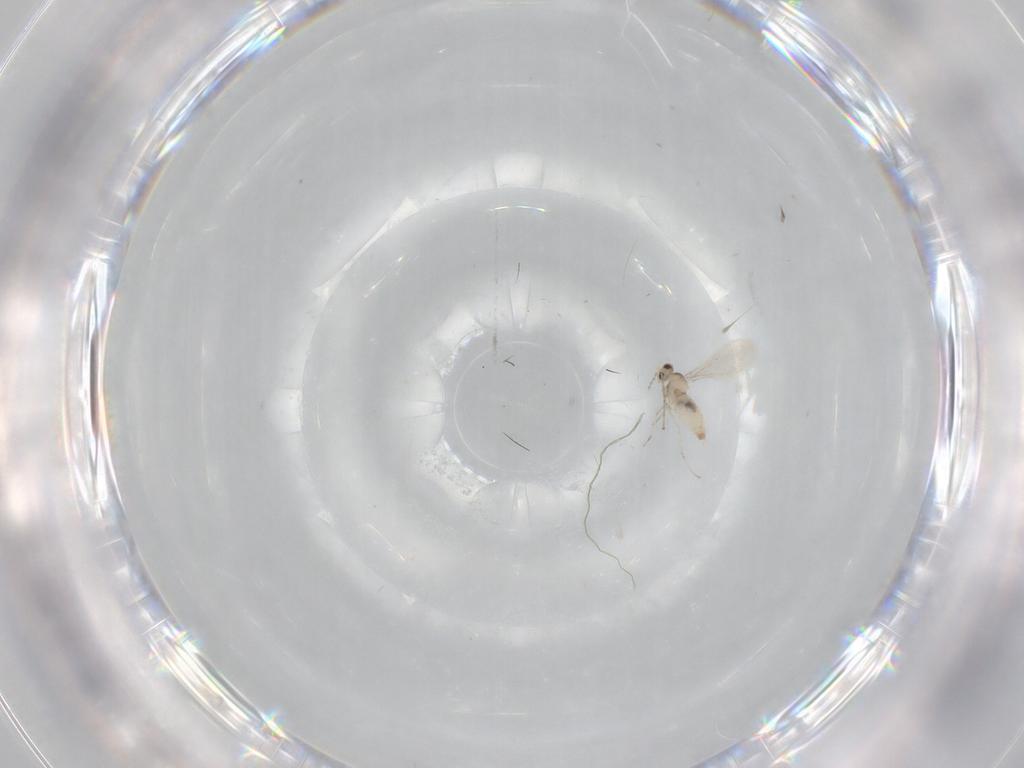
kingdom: Animalia
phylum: Arthropoda
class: Insecta
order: Diptera
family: Cecidomyiidae
